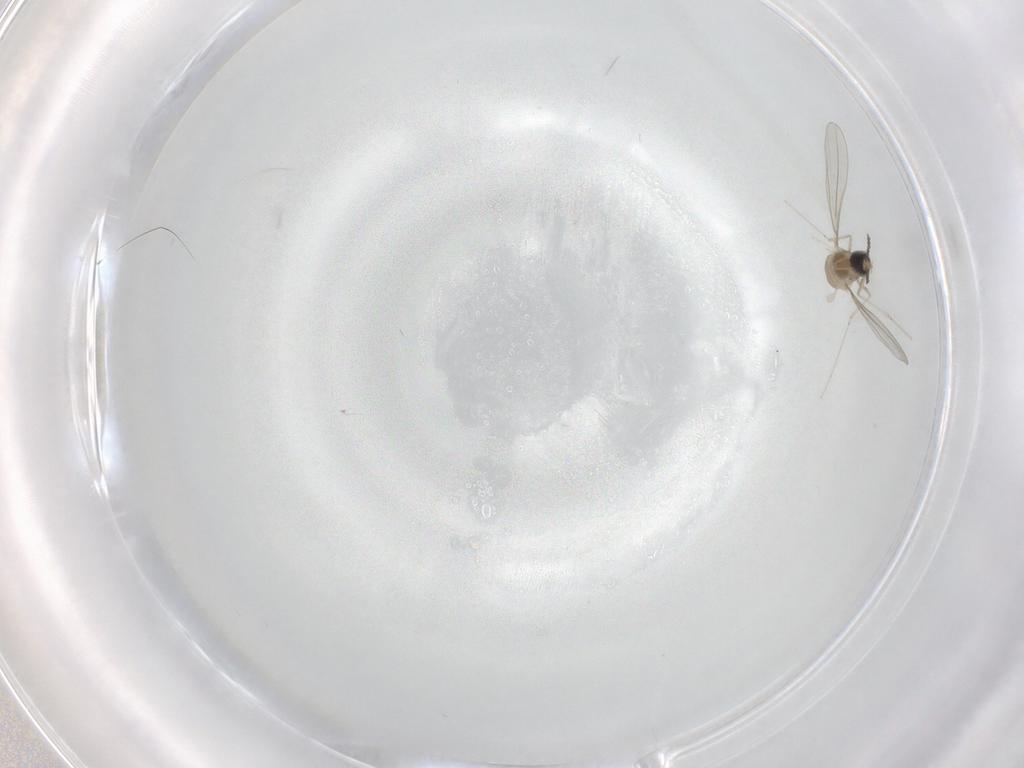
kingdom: Animalia
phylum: Arthropoda
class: Insecta
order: Diptera
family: Cecidomyiidae
